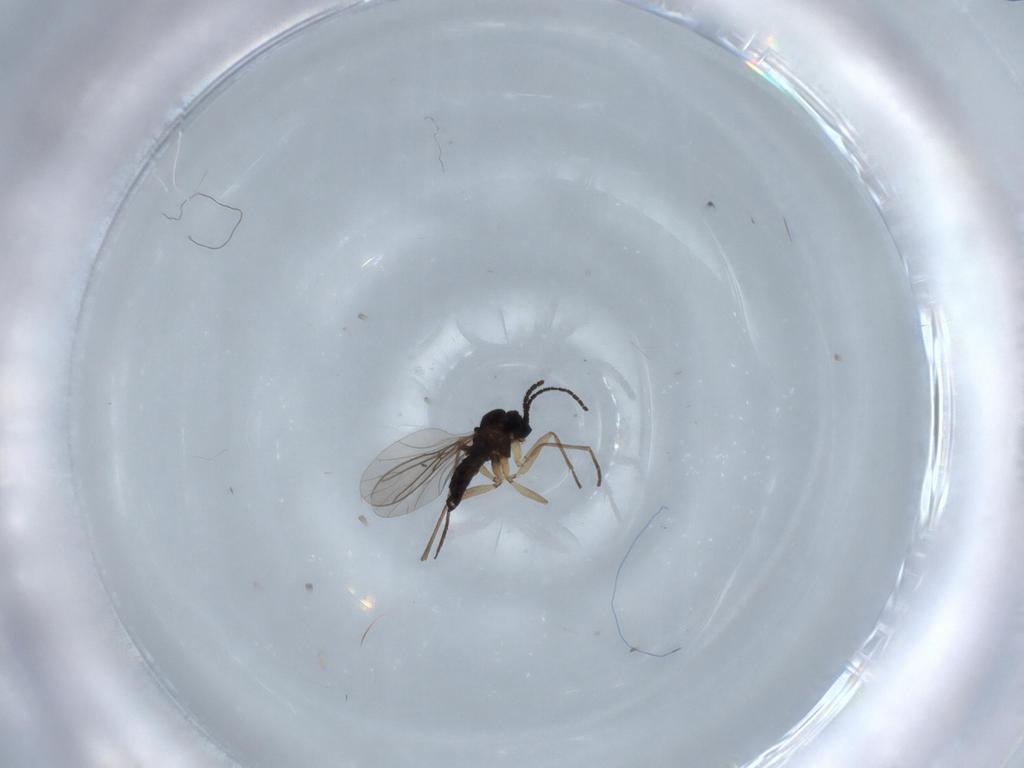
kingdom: Animalia
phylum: Arthropoda
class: Insecta
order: Diptera
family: Sciaridae
